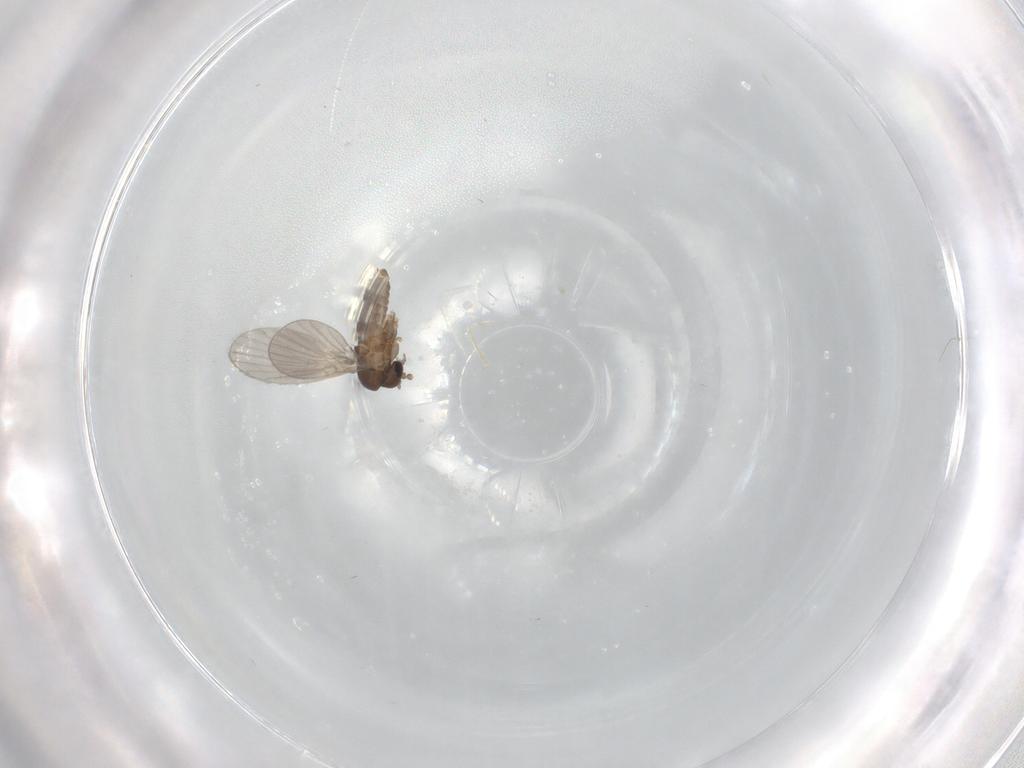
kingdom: Animalia
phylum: Arthropoda
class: Insecta
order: Diptera
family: Cecidomyiidae
